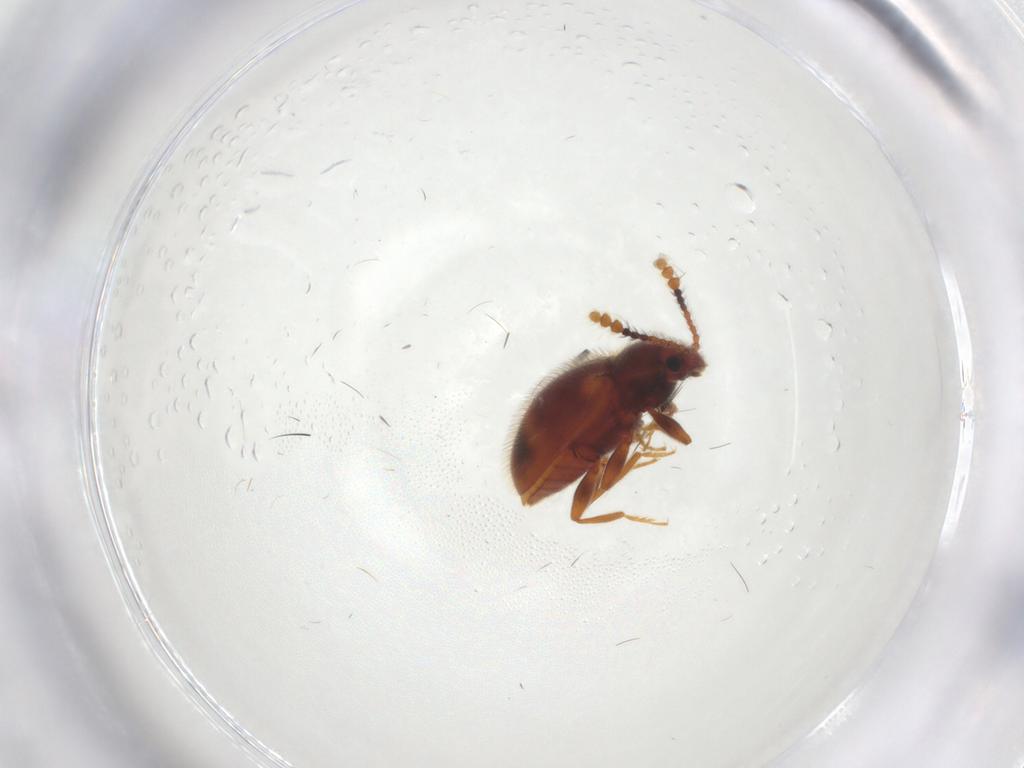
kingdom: Animalia
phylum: Arthropoda
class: Insecta
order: Coleoptera
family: Erotylidae
